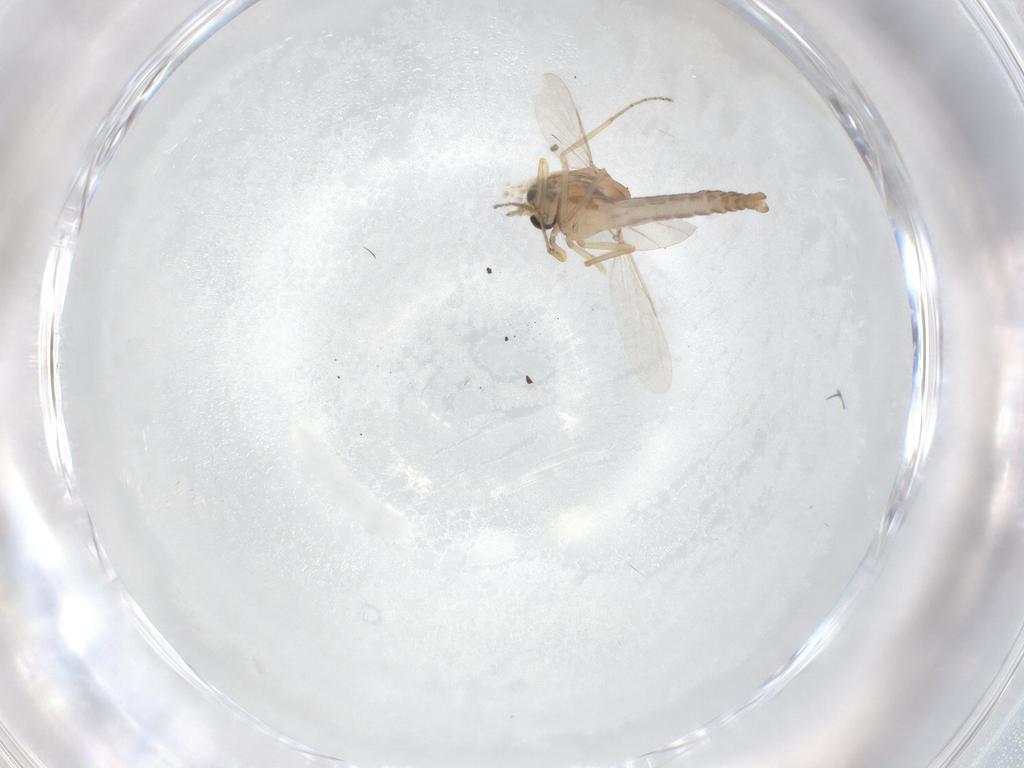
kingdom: Animalia
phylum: Arthropoda
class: Insecta
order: Diptera
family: Ceratopogonidae
